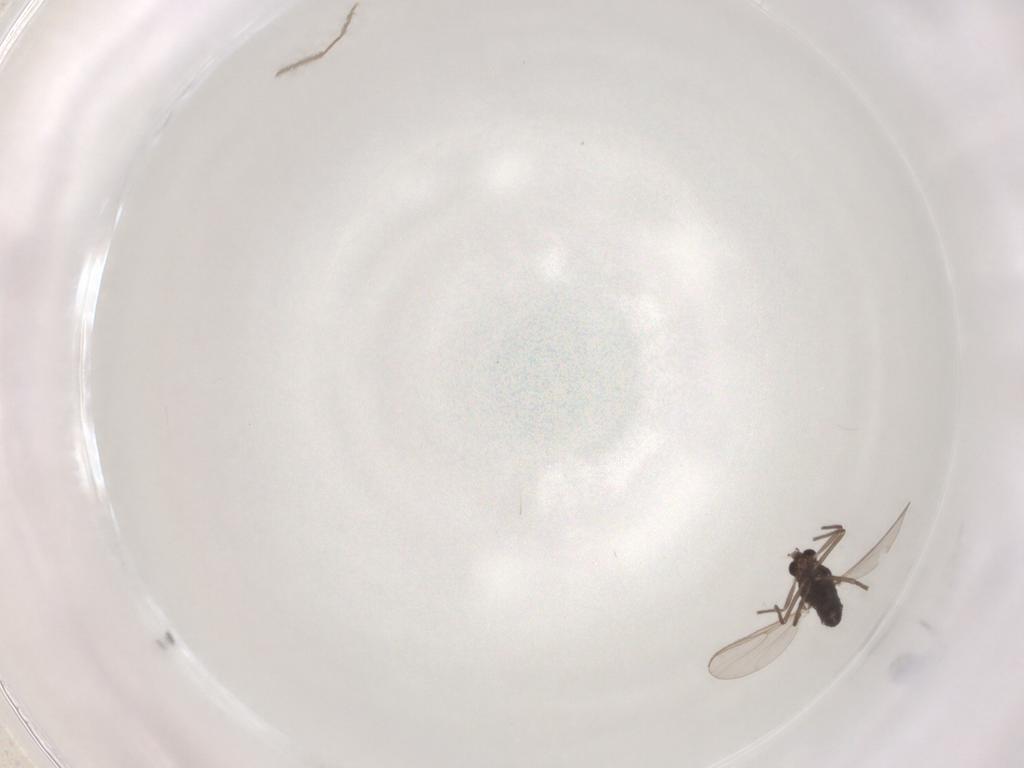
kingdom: Animalia
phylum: Arthropoda
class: Insecta
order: Diptera
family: Chironomidae
